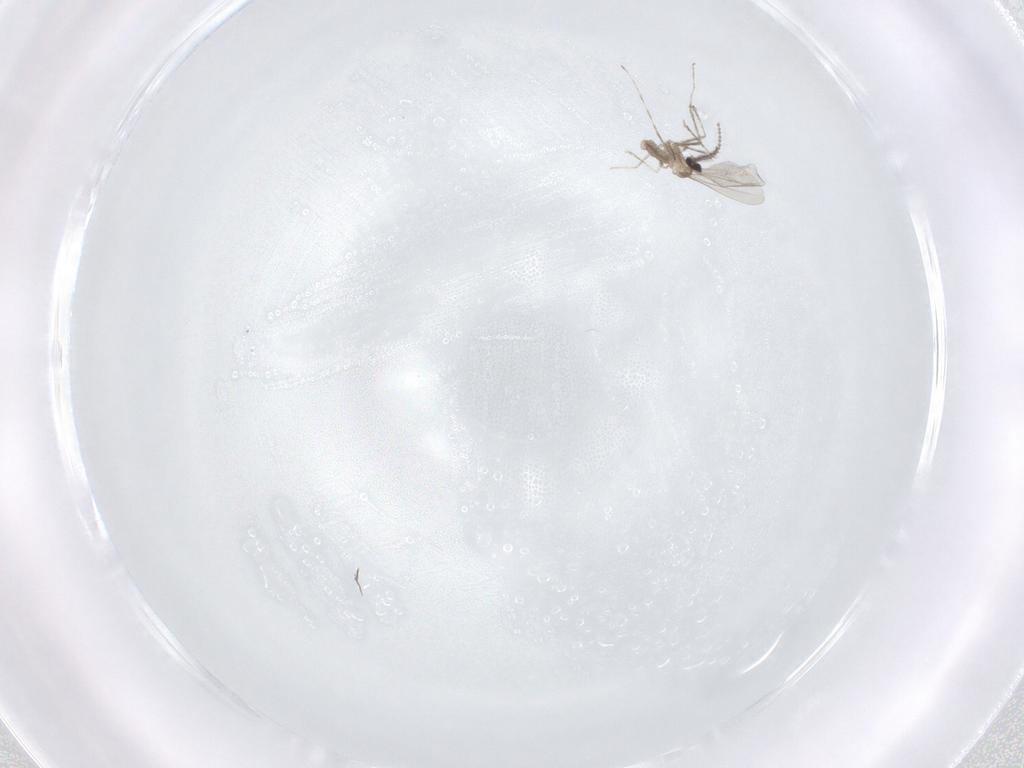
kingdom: Animalia
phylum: Arthropoda
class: Insecta
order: Diptera
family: Cecidomyiidae
